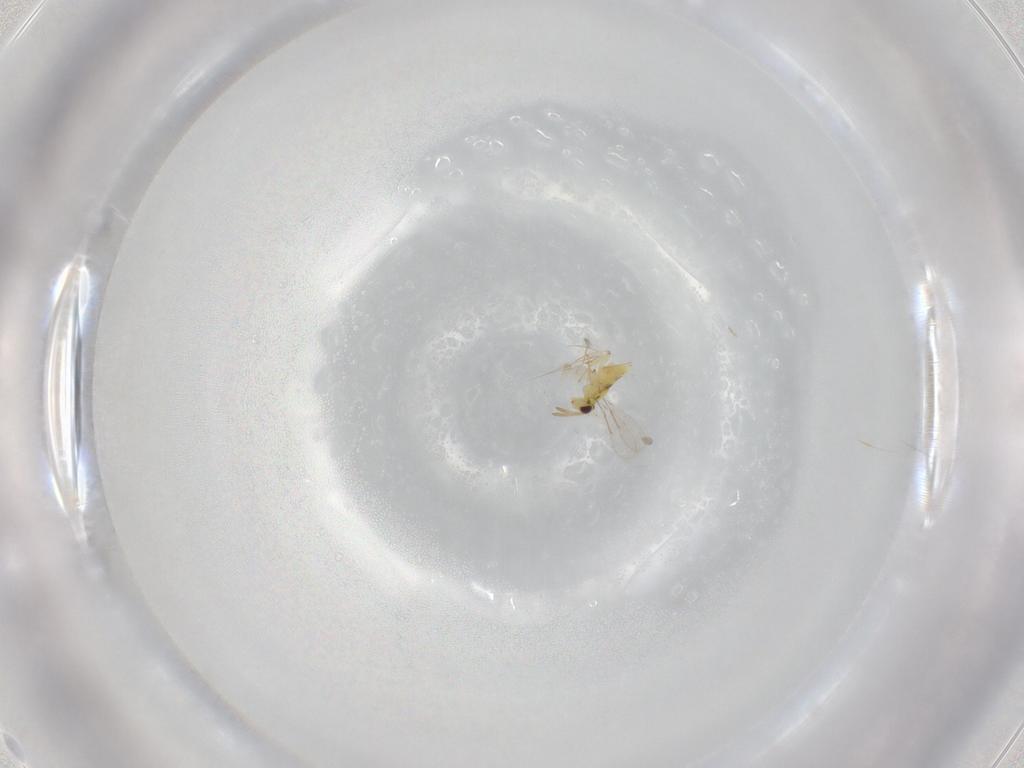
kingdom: Animalia
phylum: Arthropoda
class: Insecta
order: Hymenoptera
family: Aphelinidae
